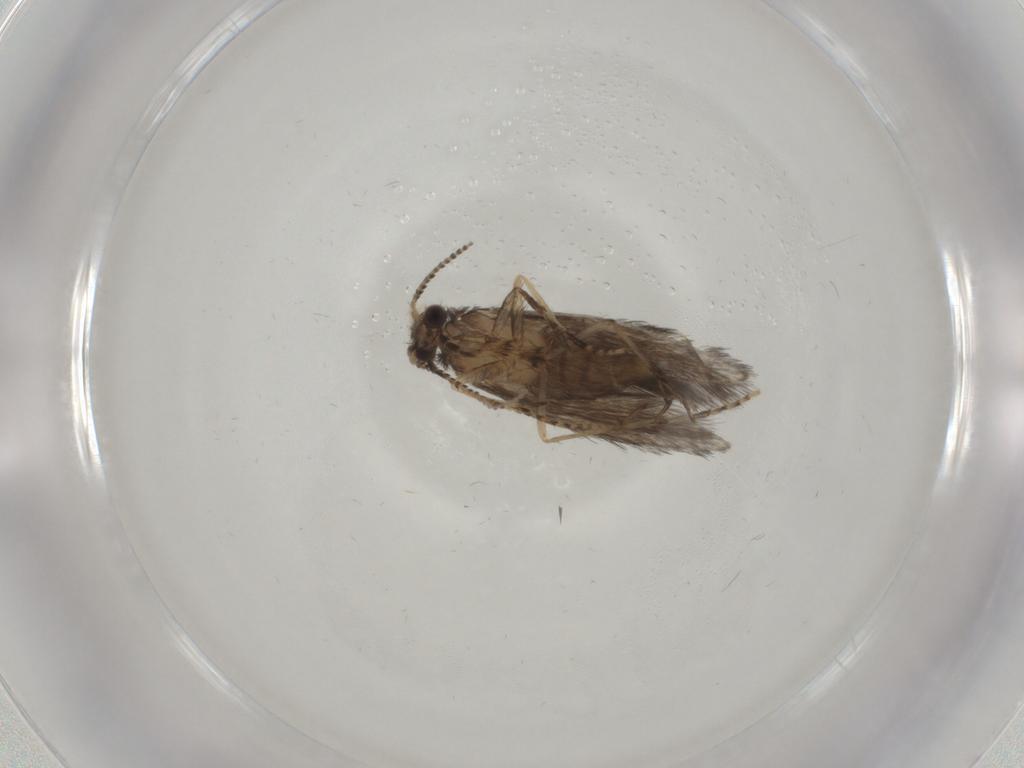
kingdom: Animalia
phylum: Arthropoda
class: Insecta
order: Trichoptera
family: Hydroptilidae
